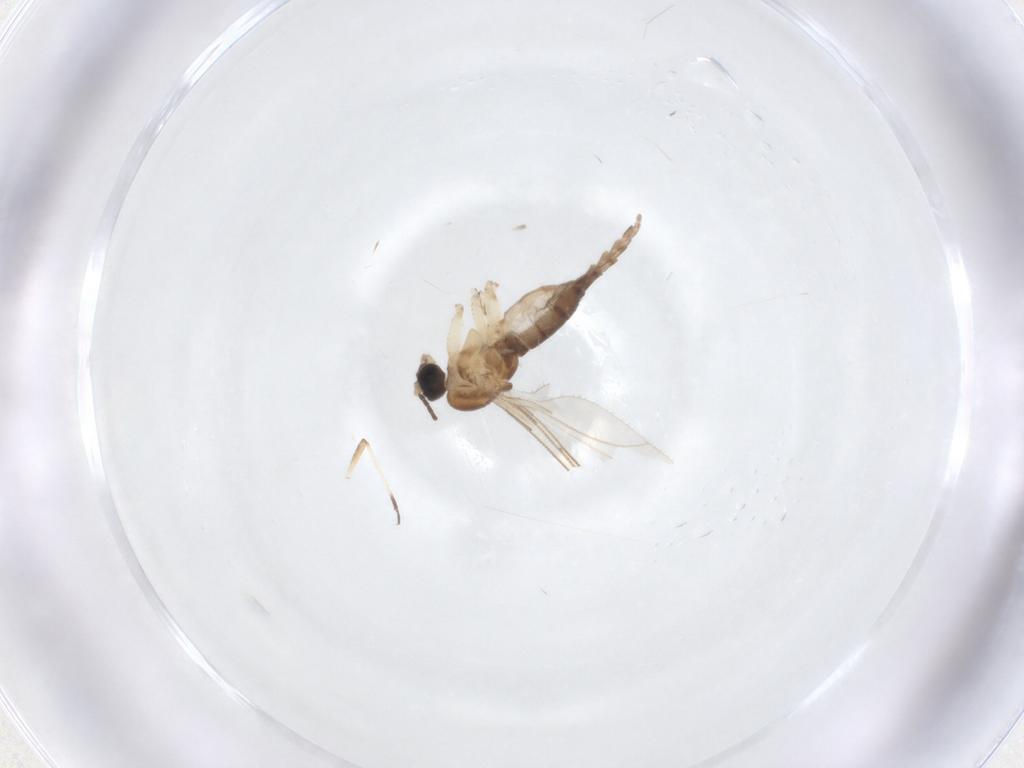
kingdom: Animalia
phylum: Arthropoda
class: Insecta
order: Diptera
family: Sciaridae
